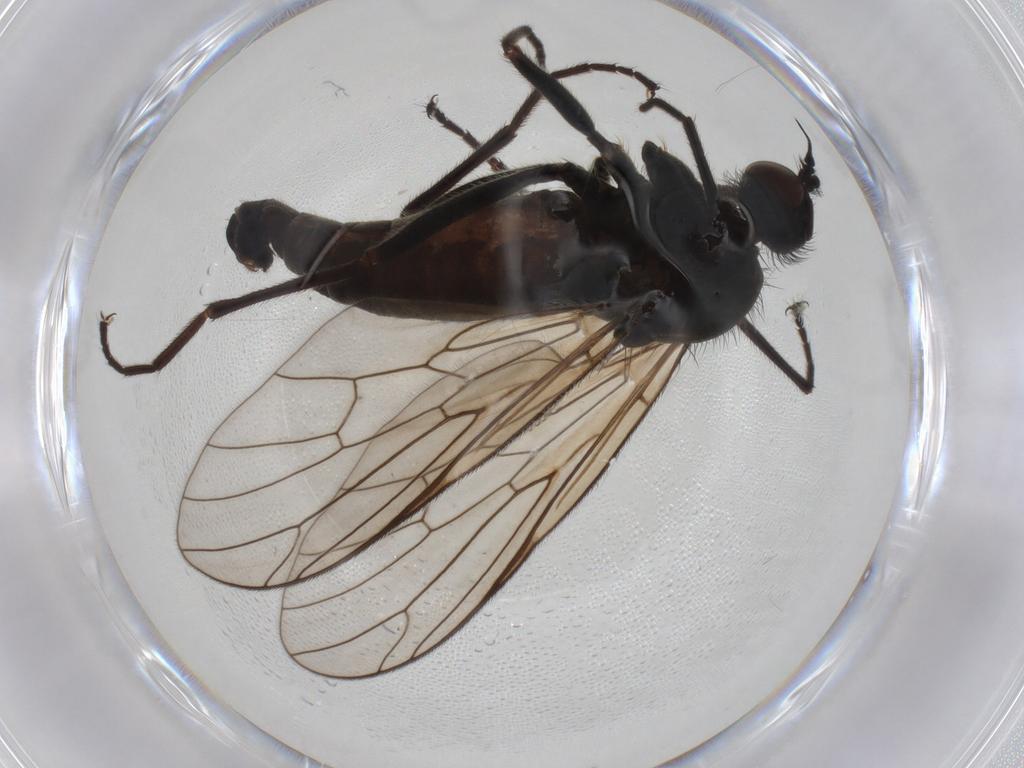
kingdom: Animalia
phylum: Arthropoda
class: Insecta
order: Diptera
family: Empididae
